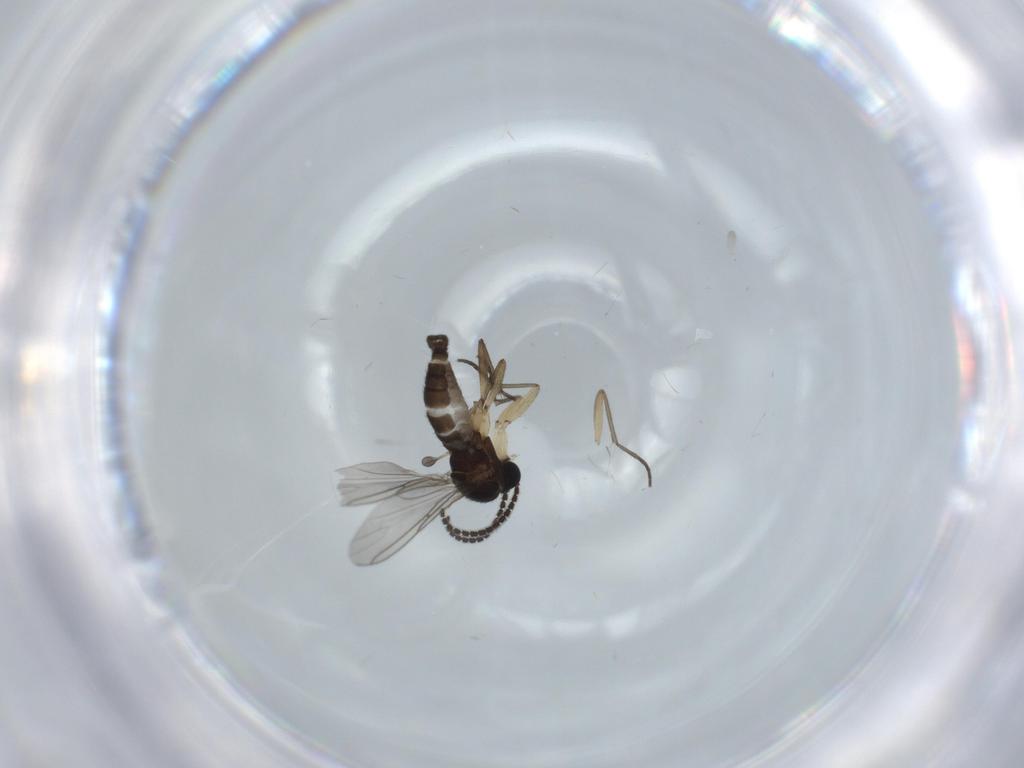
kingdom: Animalia
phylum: Arthropoda
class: Insecta
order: Diptera
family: Sciaridae
